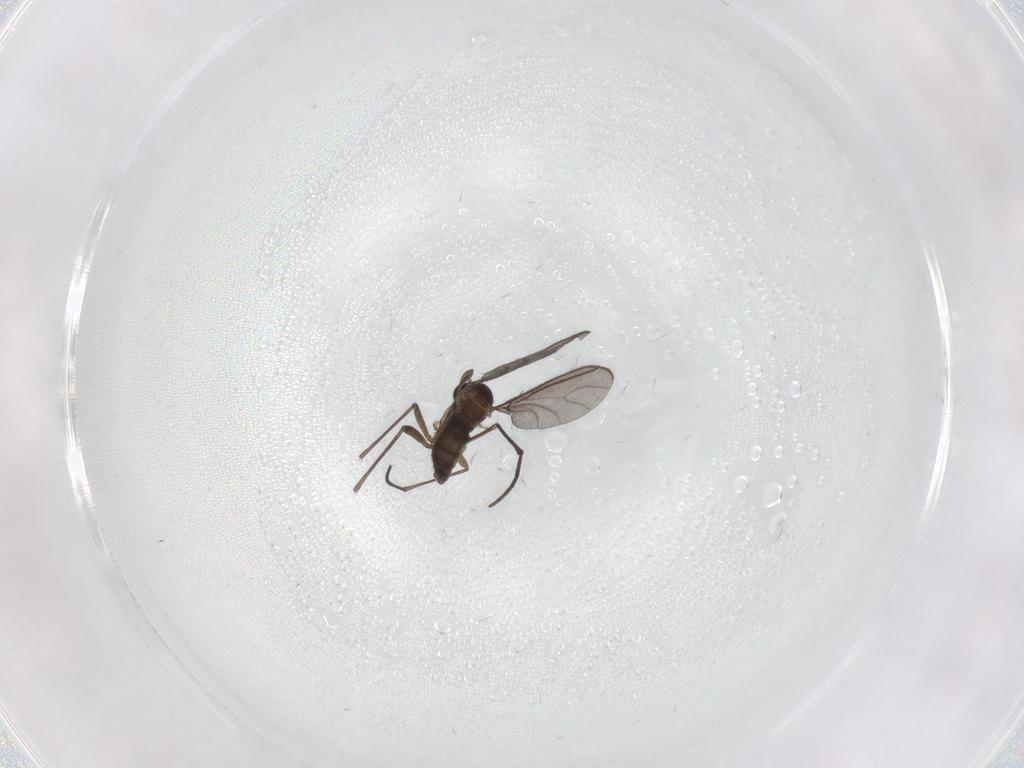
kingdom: Animalia
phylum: Arthropoda
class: Insecta
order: Diptera
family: Sciaridae
